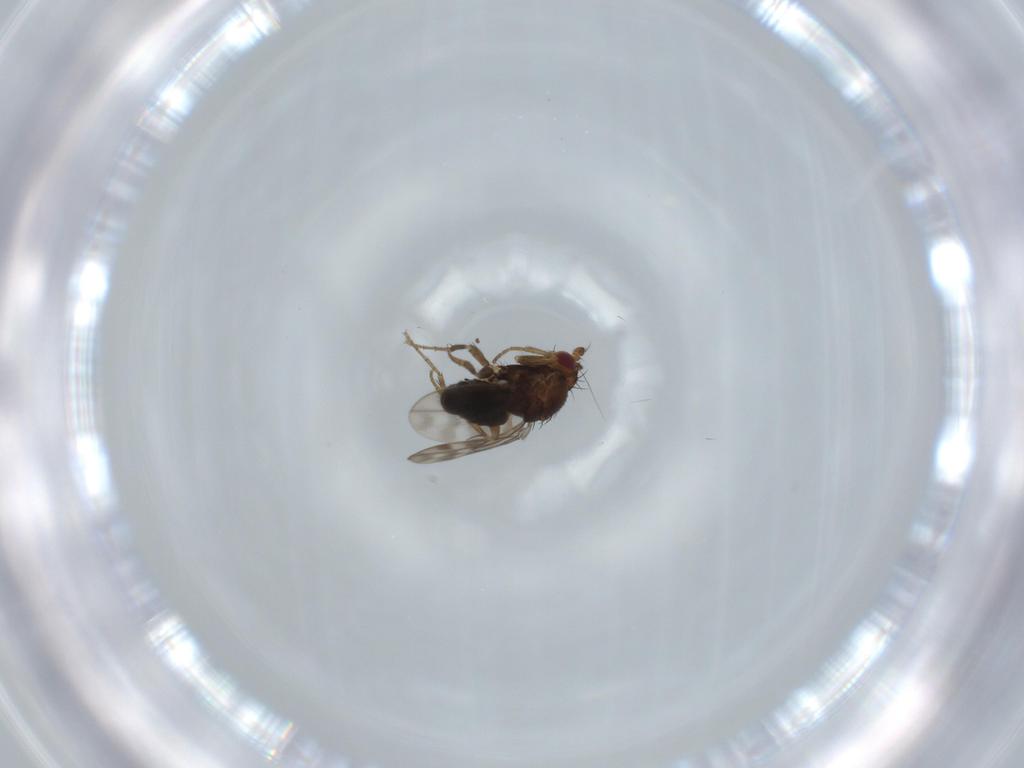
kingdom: Animalia
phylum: Arthropoda
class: Insecta
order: Diptera
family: Sphaeroceridae
